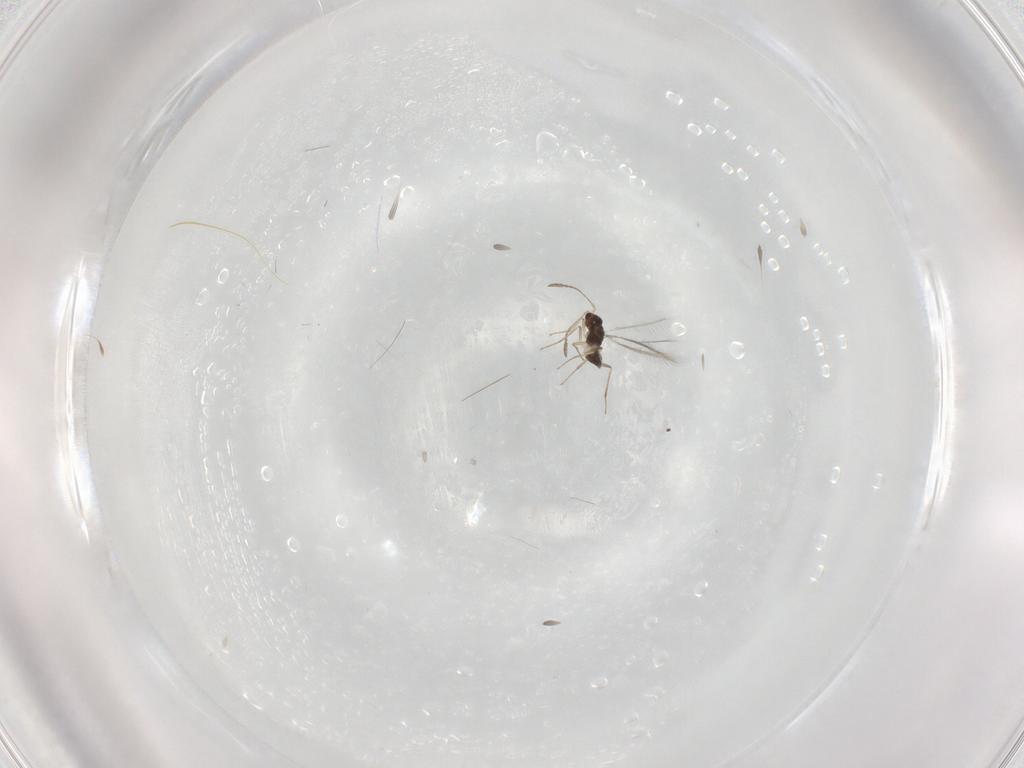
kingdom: Animalia
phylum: Arthropoda
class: Insecta
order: Hymenoptera
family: Mymaridae
